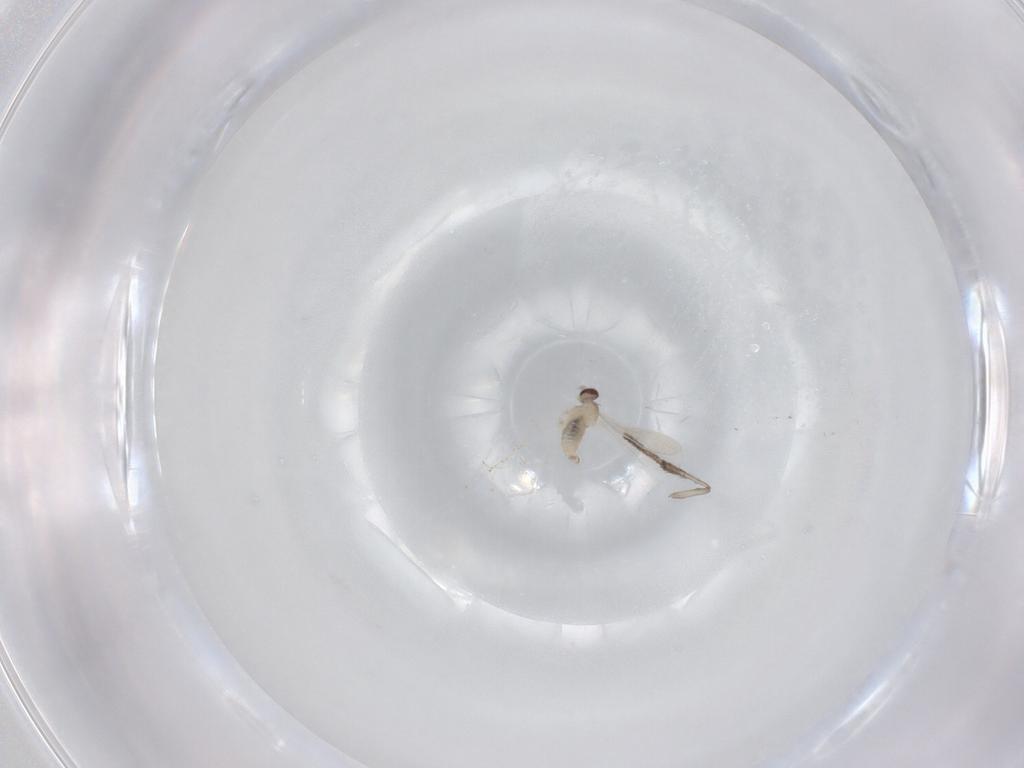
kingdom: Animalia
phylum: Arthropoda
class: Insecta
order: Diptera
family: Psychodidae
